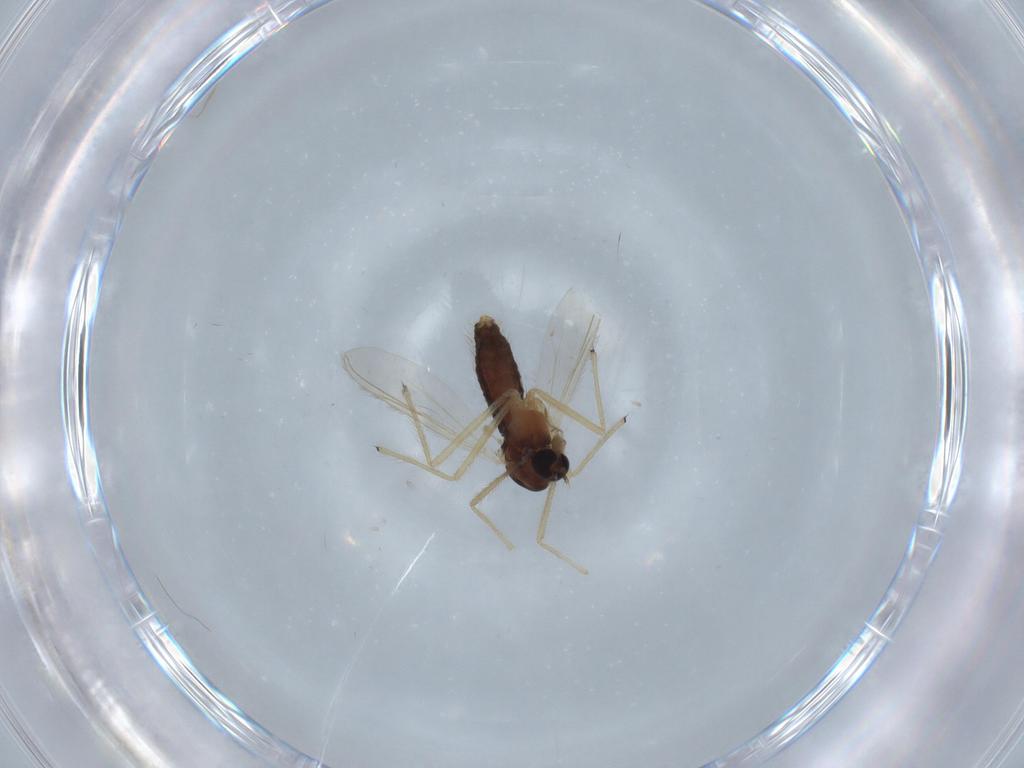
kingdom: Animalia
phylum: Arthropoda
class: Insecta
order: Diptera
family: Chironomidae
